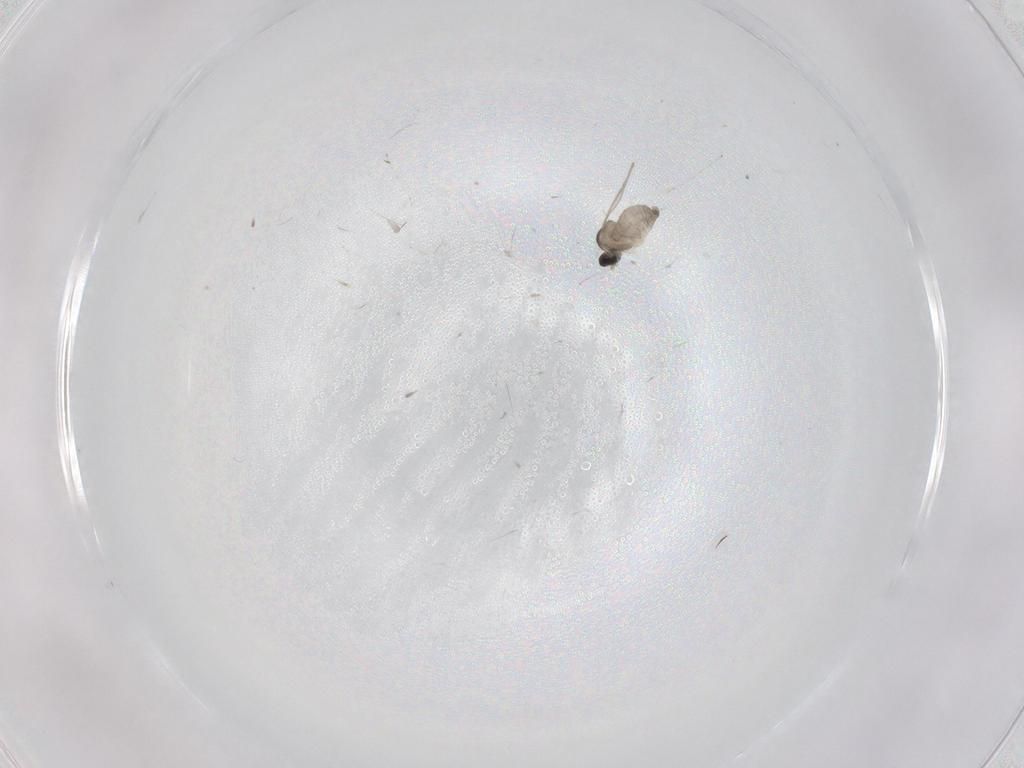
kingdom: Animalia
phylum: Arthropoda
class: Insecta
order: Diptera
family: Cecidomyiidae
